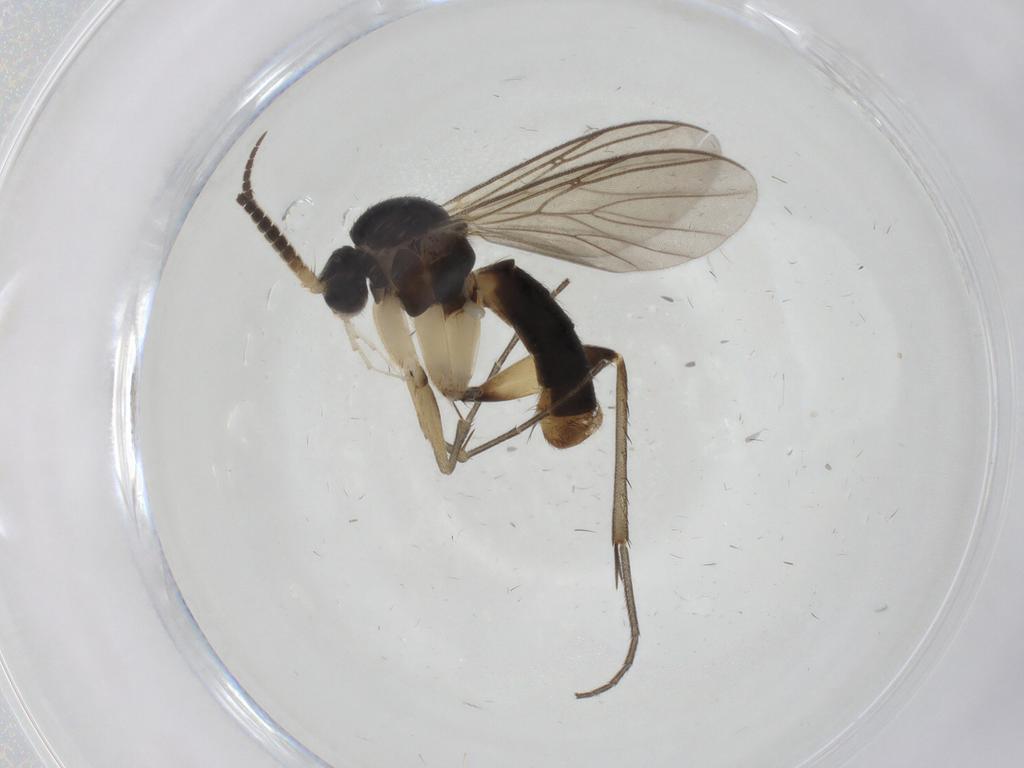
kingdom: Animalia
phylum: Arthropoda
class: Insecta
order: Diptera
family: Mycetophilidae
